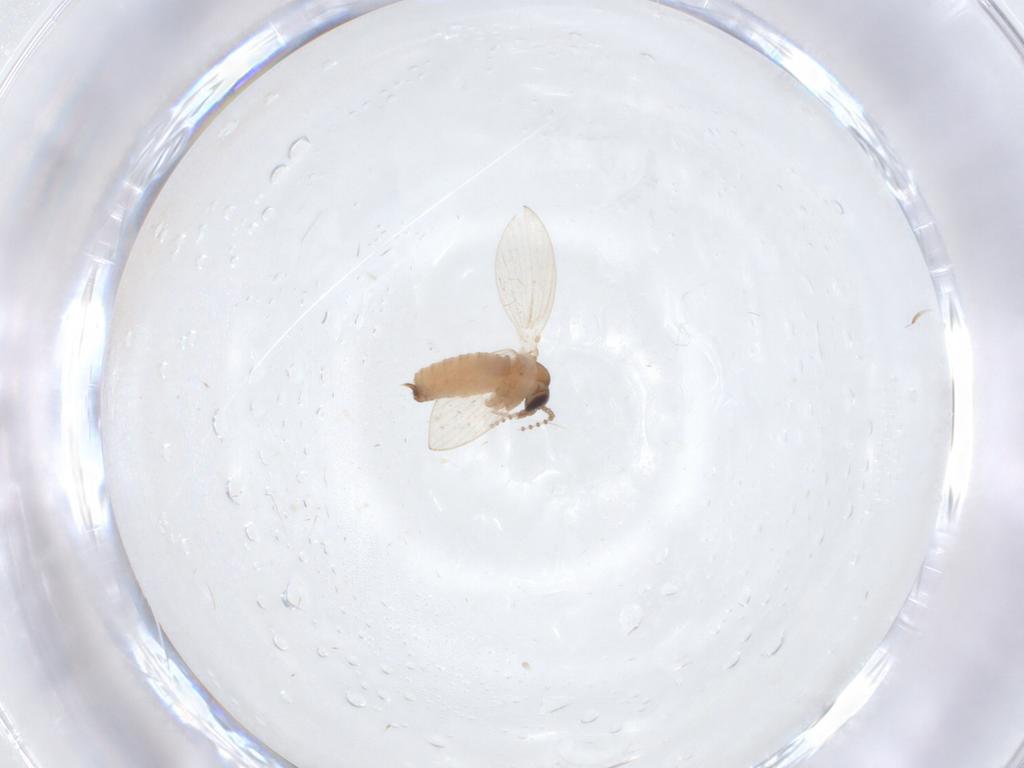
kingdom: Animalia
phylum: Arthropoda
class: Insecta
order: Diptera
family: Psychodidae
